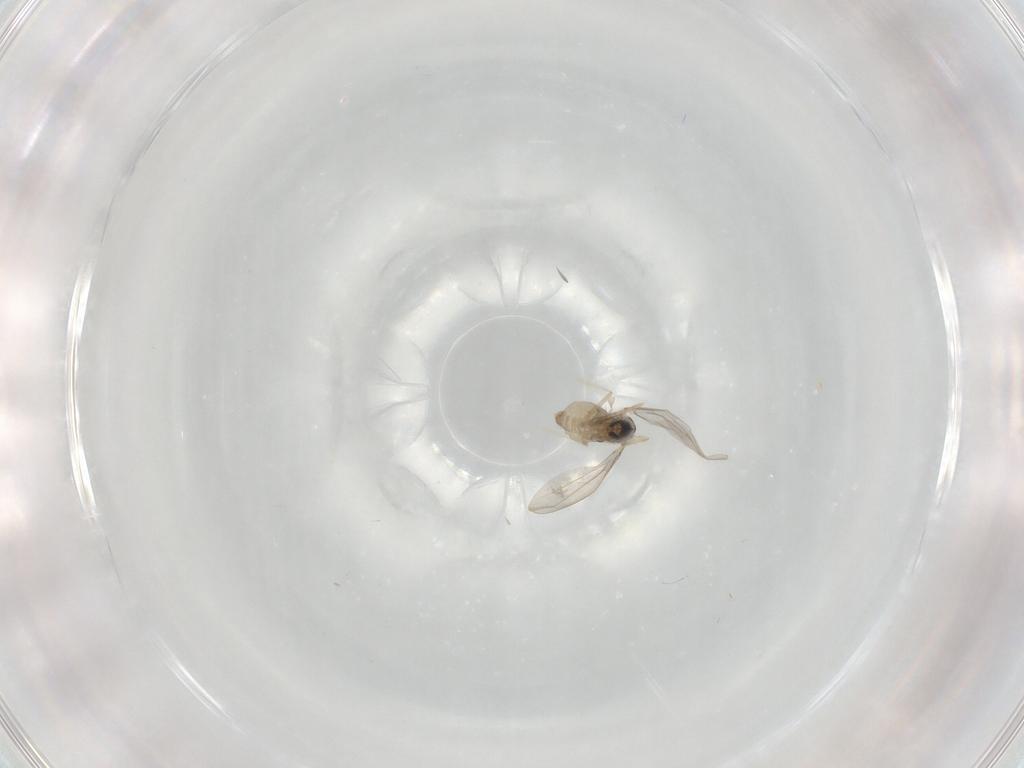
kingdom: Animalia
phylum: Arthropoda
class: Insecta
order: Diptera
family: Cecidomyiidae
